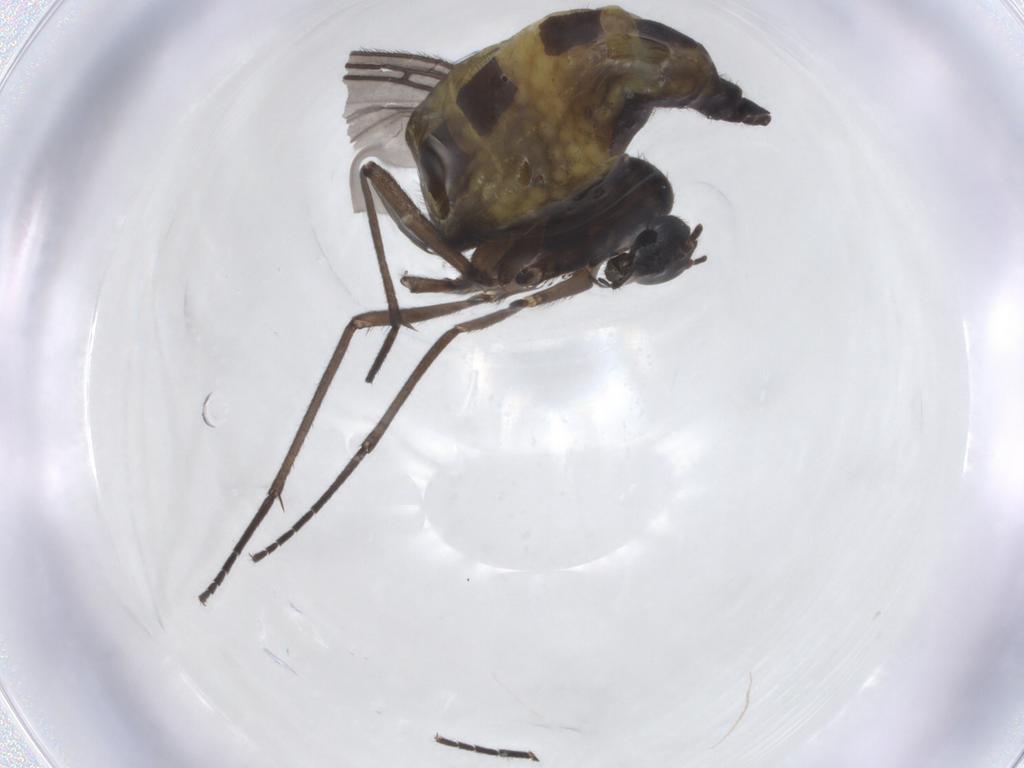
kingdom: Animalia
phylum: Arthropoda
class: Insecta
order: Diptera
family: Sciaridae
